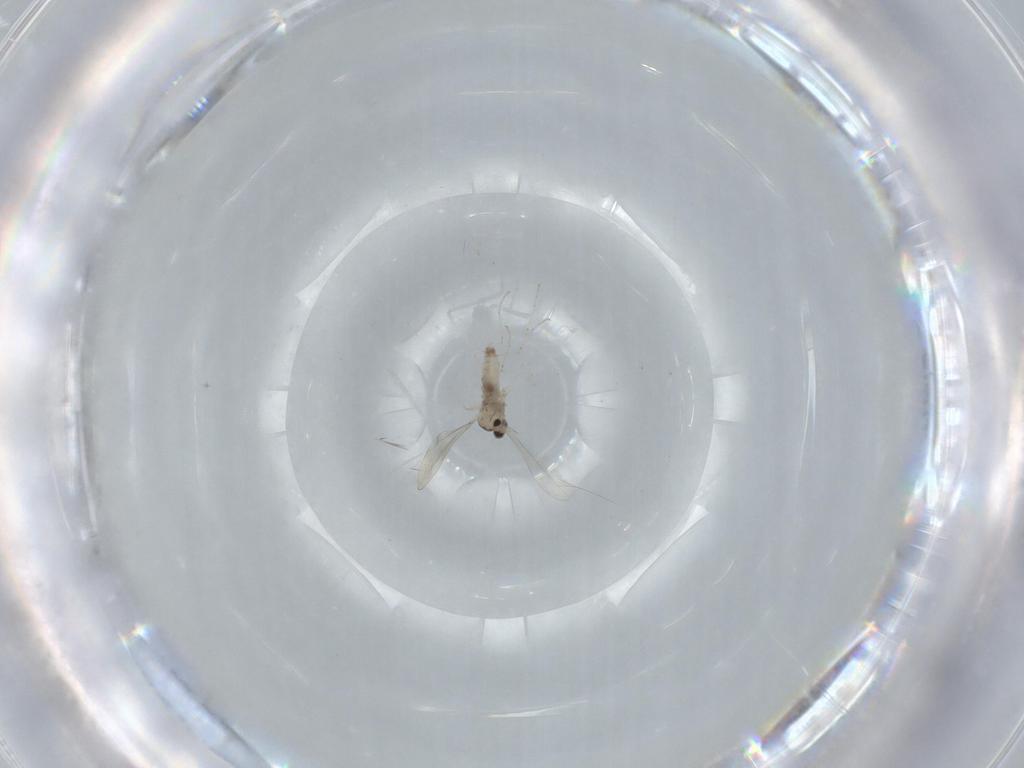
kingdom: Animalia
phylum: Arthropoda
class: Insecta
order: Diptera
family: Cecidomyiidae
